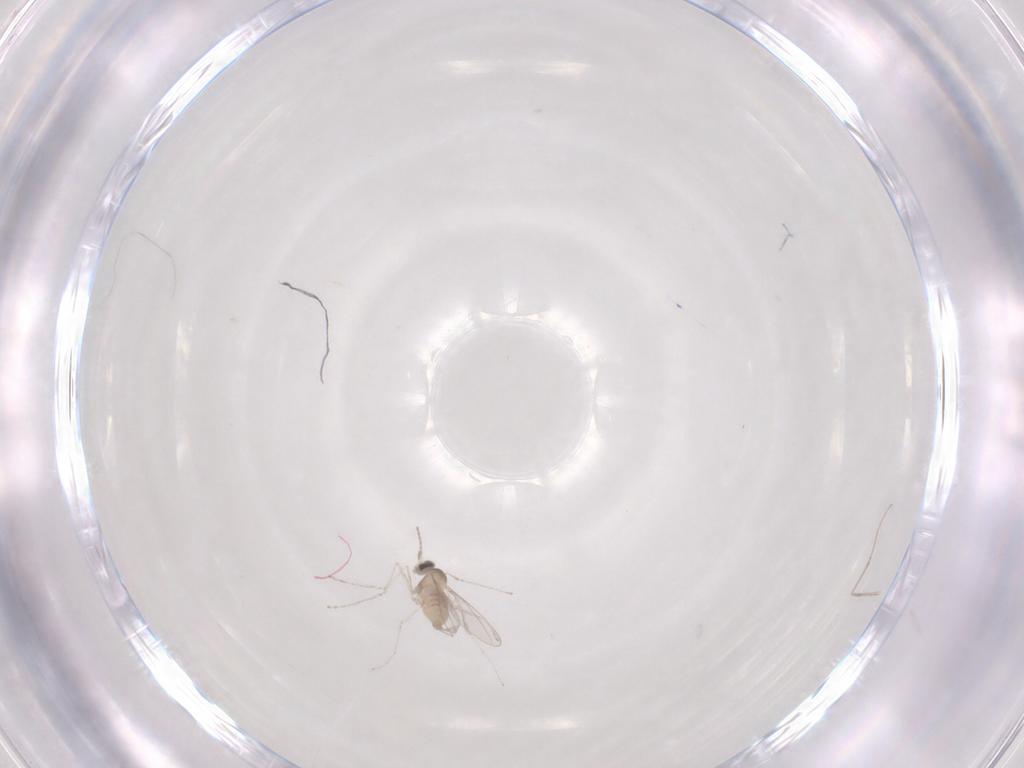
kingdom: Animalia
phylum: Arthropoda
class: Insecta
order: Diptera
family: Cecidomyiidae
